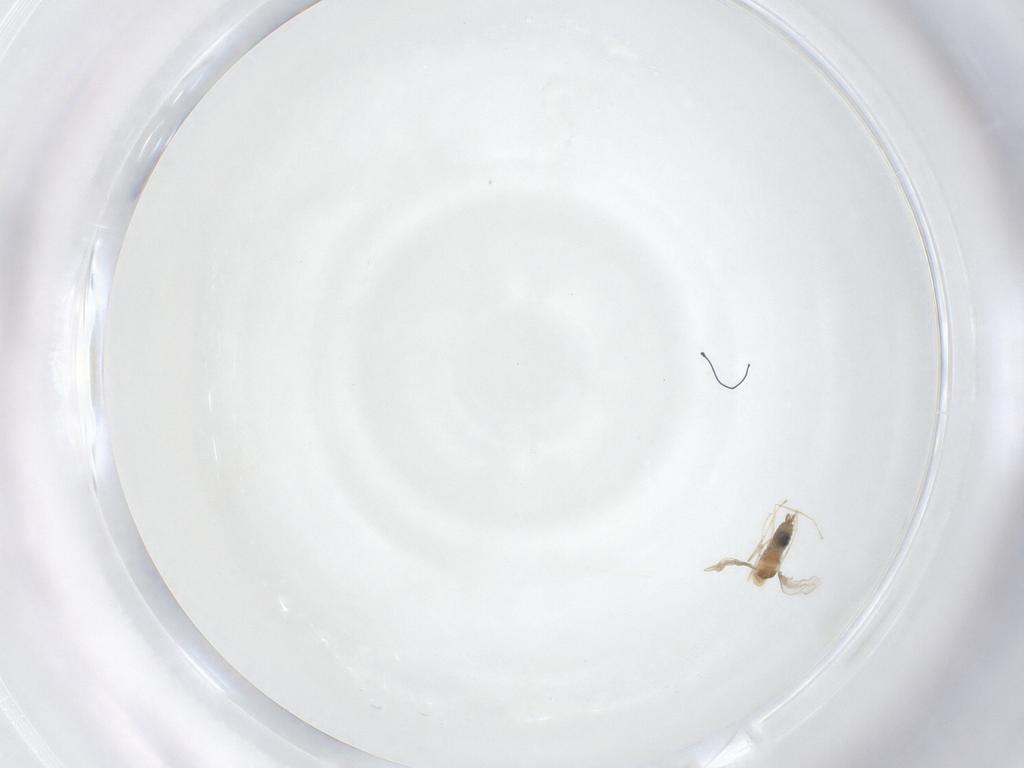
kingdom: Animalia
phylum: Arthropoda
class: Insecta
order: Diptera
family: Cecidomyiidae
